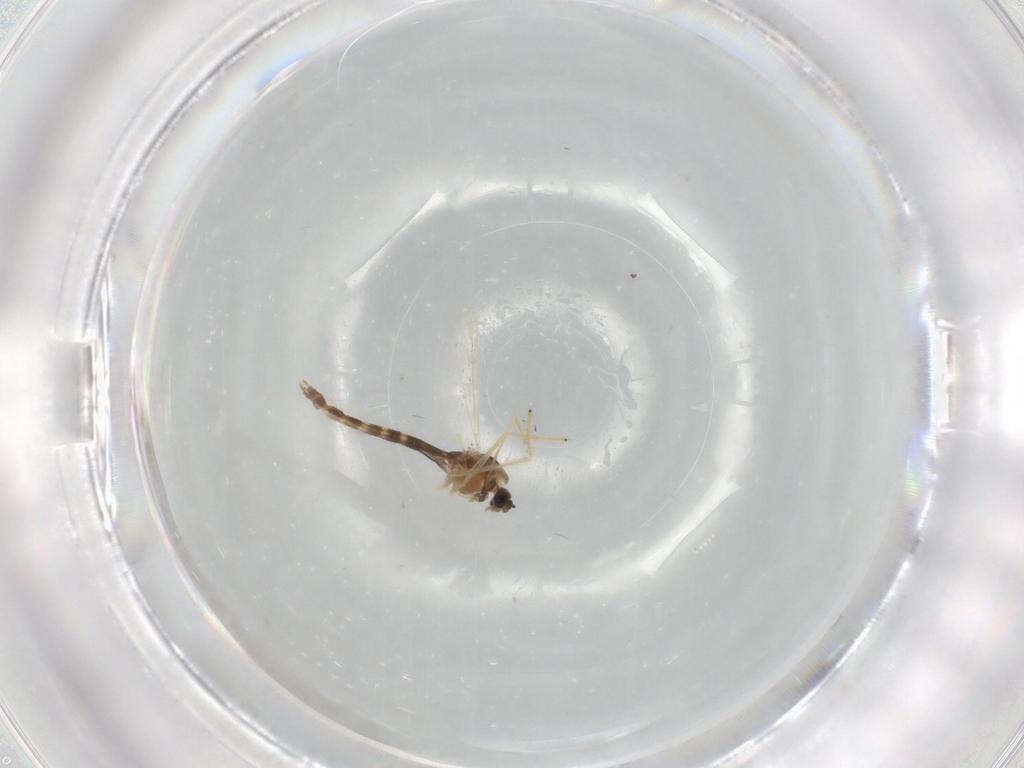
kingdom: Animalia
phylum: Arthropoda
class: Insecta
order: Diptera
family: Chironomidae
